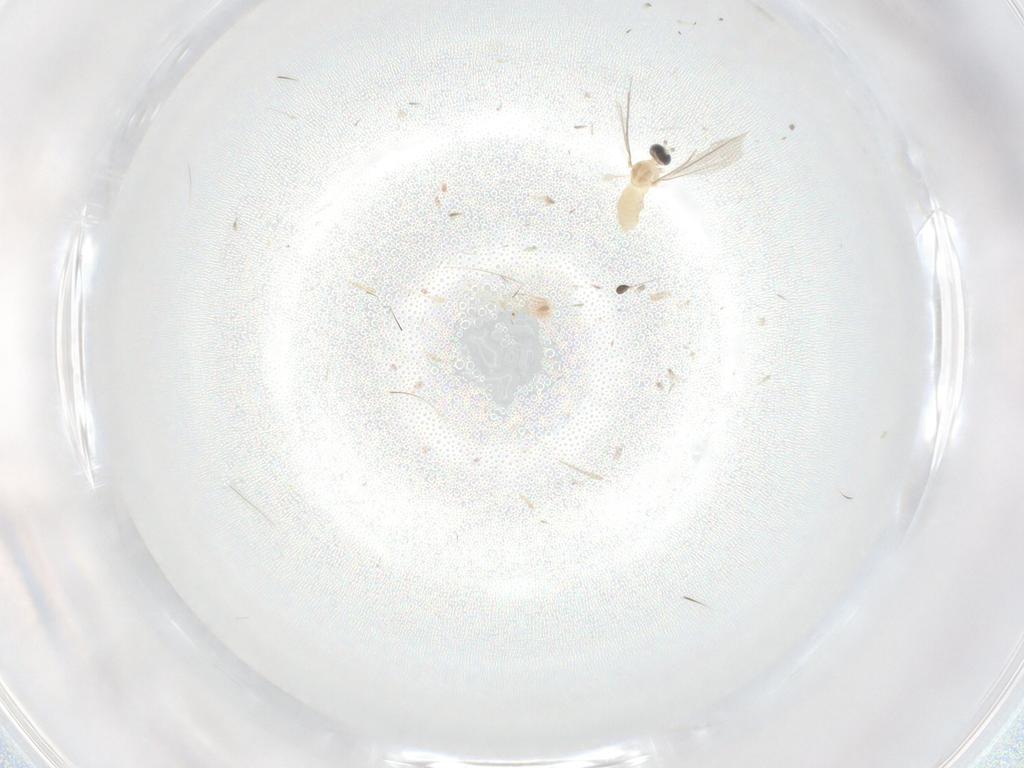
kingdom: Animalia
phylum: Arthropoda
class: Insecta
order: Diptera
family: Cecidomyiidae
